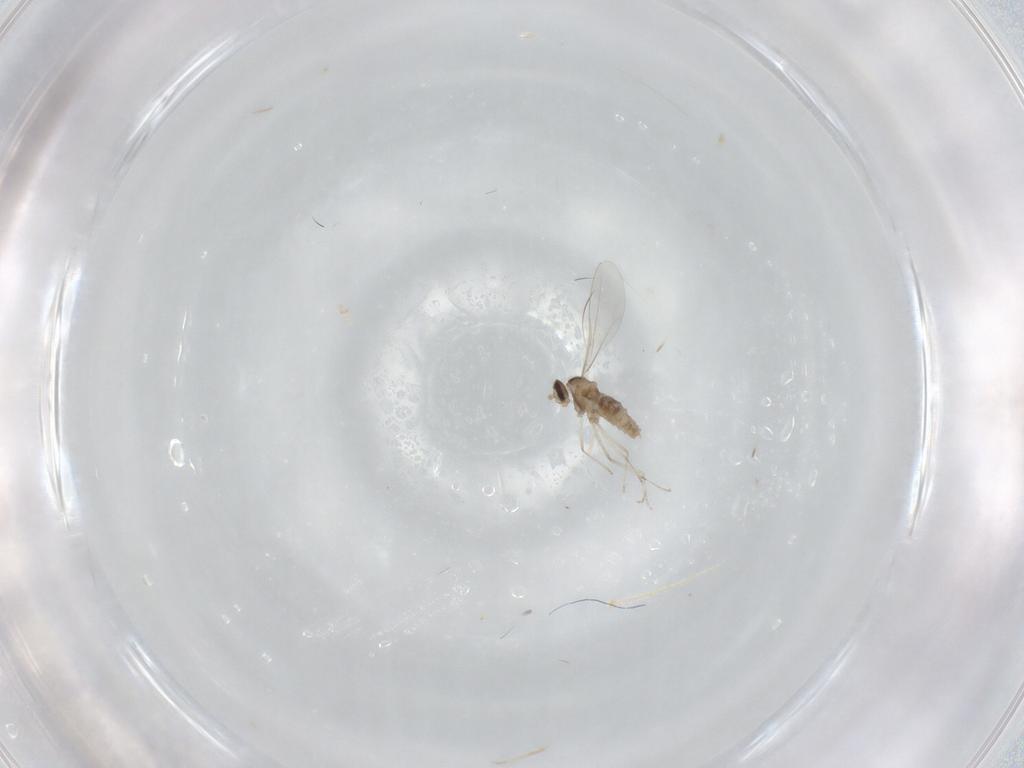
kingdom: Animalia
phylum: Arthropoda
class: Insecta
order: Diptera
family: Cecidomyiidae
